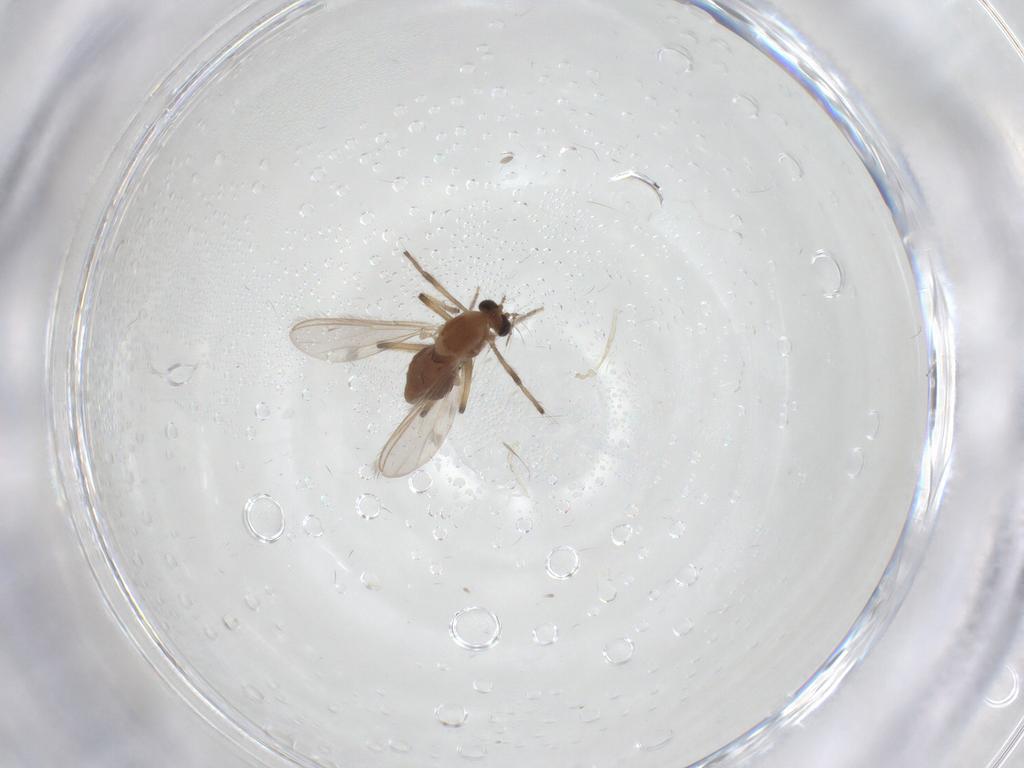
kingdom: Animalia
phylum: Arthropoda
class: Insecta
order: Diptera
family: Chironomidae
